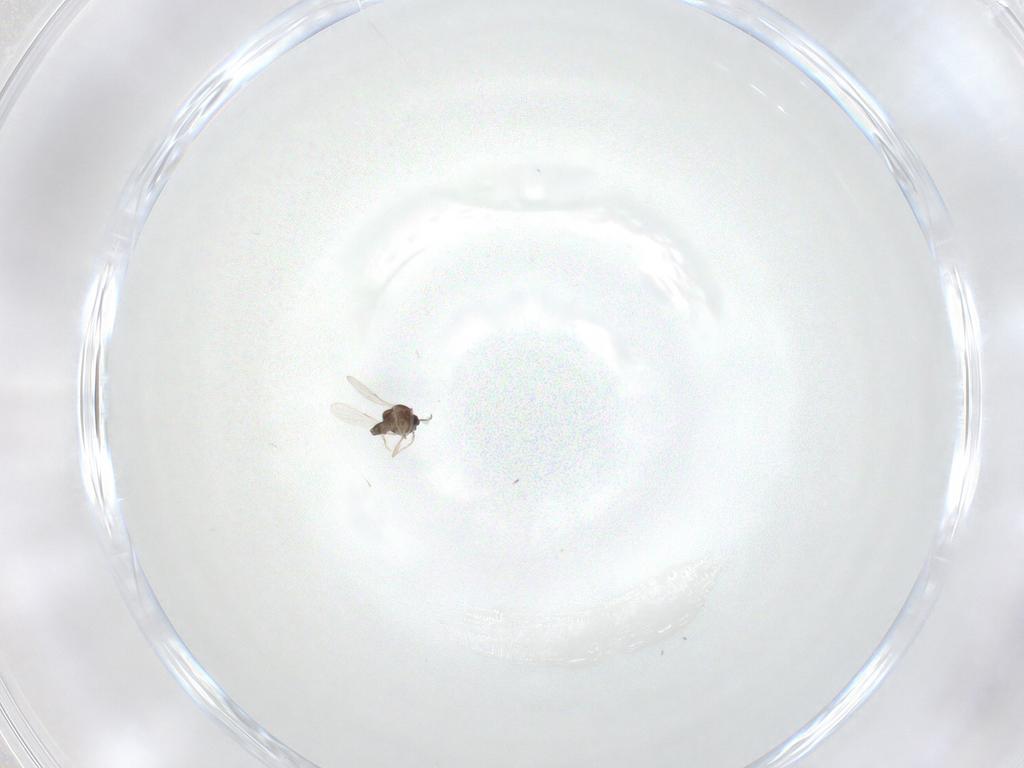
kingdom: Animalia
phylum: Arthropoda
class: Insecta
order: Diptera
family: Ceratopogonidae
